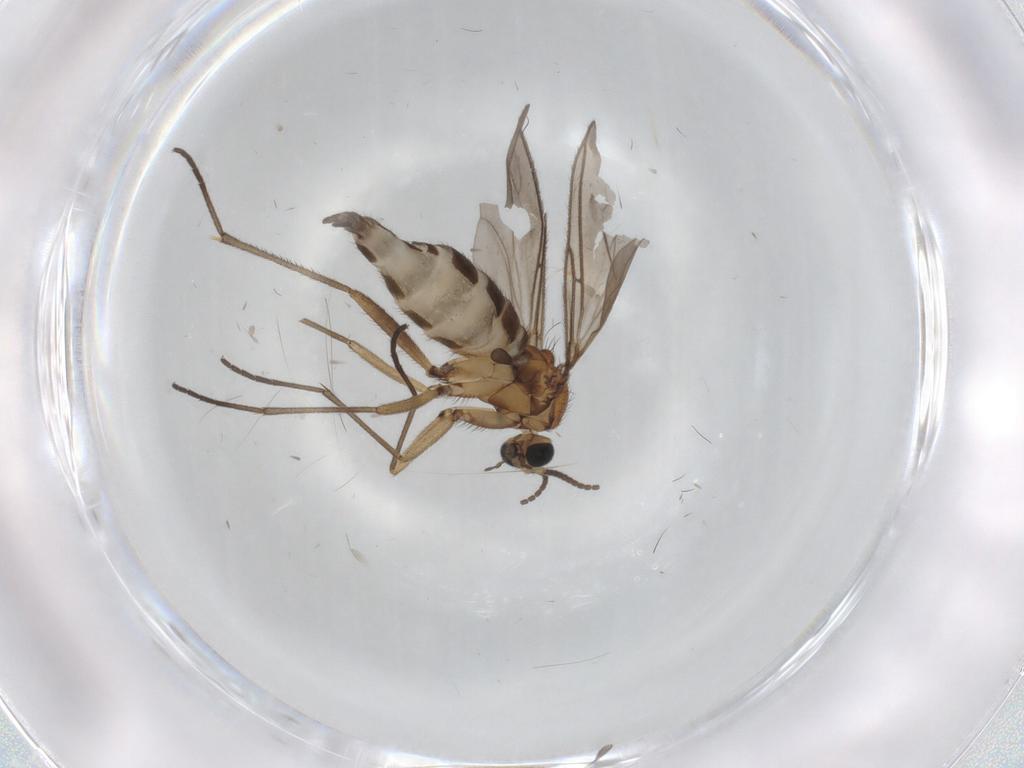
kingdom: Animalia
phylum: Arthropoda
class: Insecta
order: Diptera
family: Sciaridae
